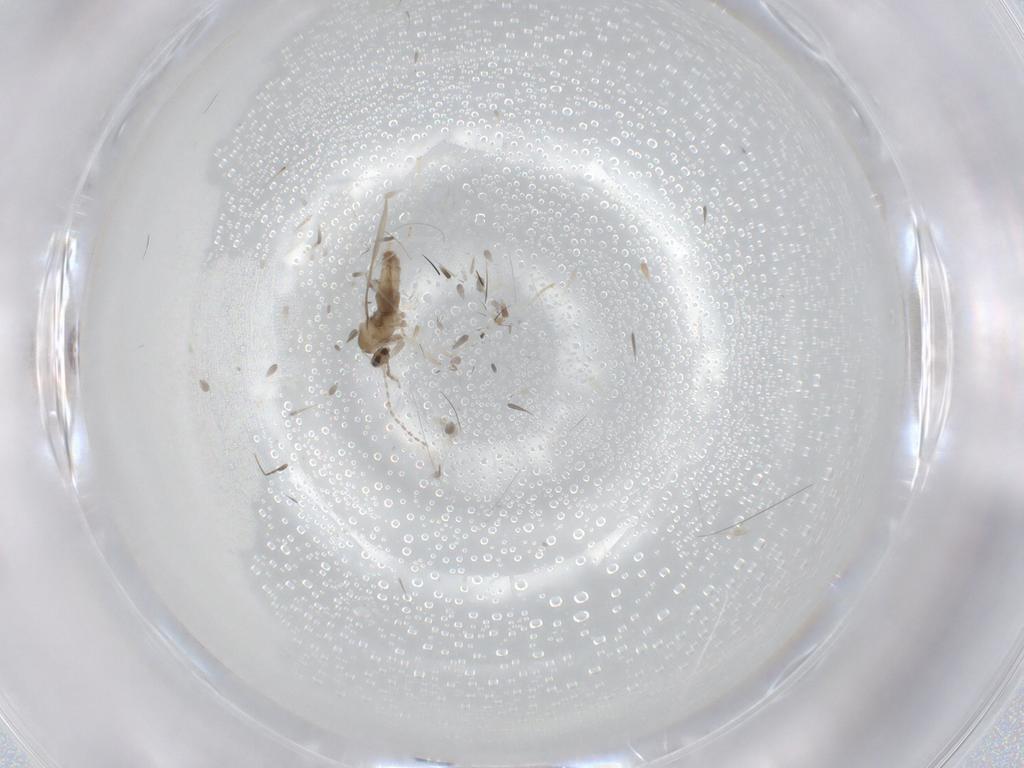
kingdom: Animalia
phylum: Arthropoda
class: Insecta
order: Diptera
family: Cecidomyiidae
